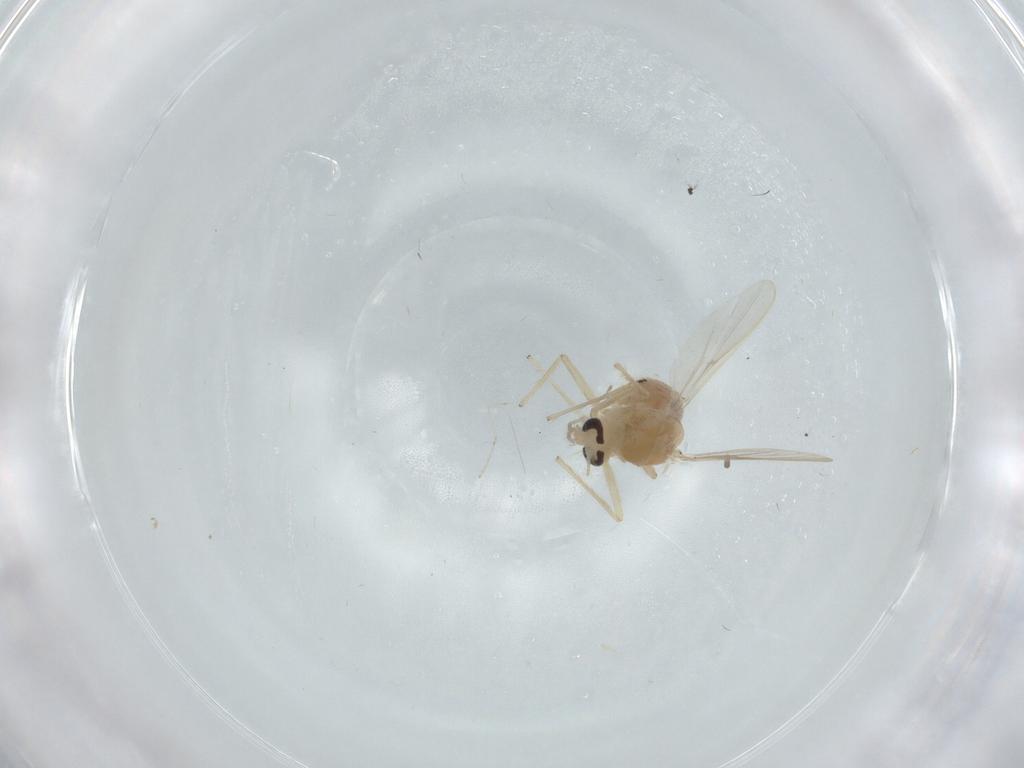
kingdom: Animalia
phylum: Arthropoda
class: Insecta
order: Diptera
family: Chironomidae
